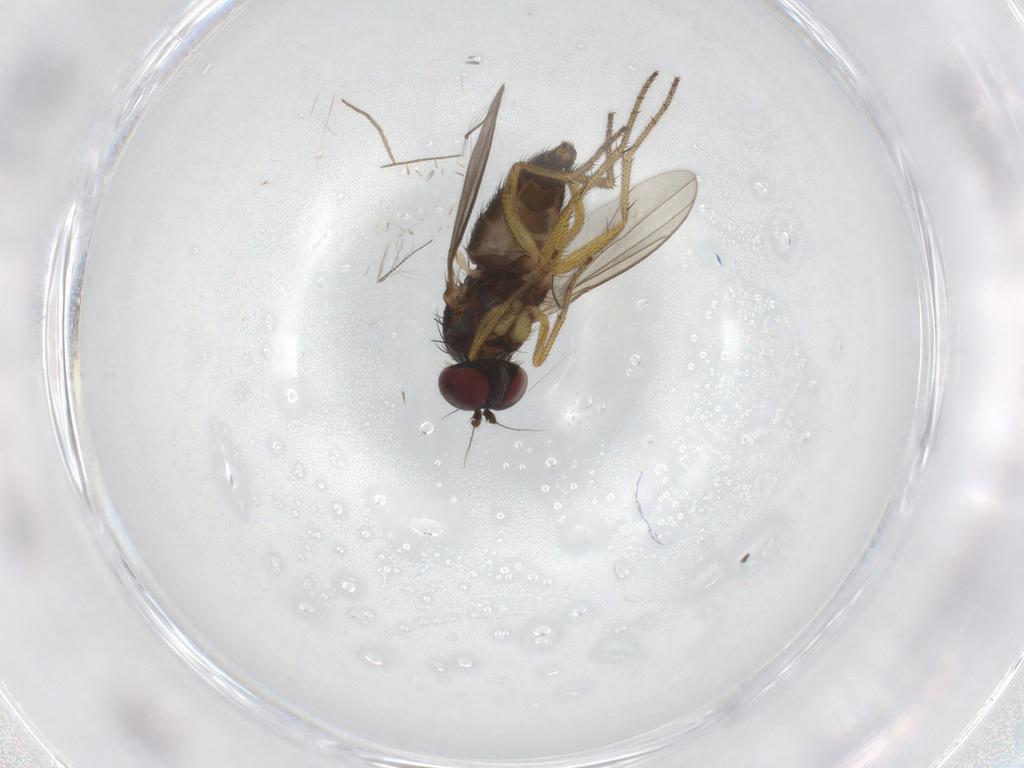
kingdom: Animalia
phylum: Arthropoda
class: Insecta
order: Diptera
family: Chironomidae
